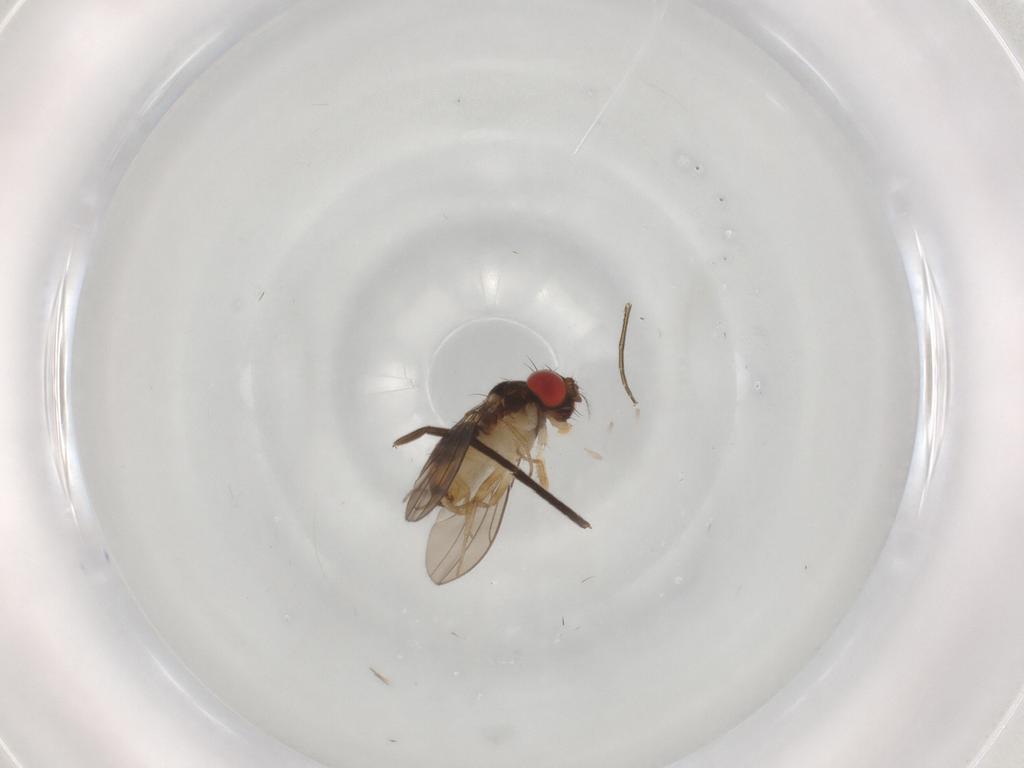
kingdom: Animalia
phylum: Arthropoda
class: Insecta
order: Diptera
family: Drosophilidae
